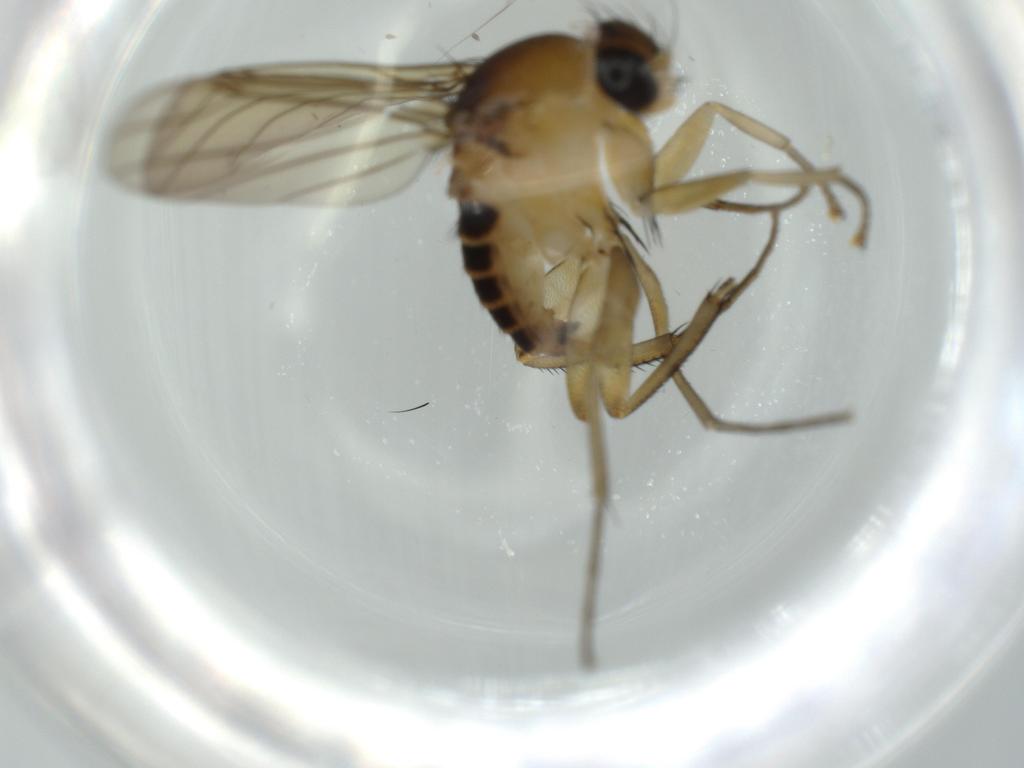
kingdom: Animalia
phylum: Arthropoda
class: Insecta
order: Diptera
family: Phoridae
